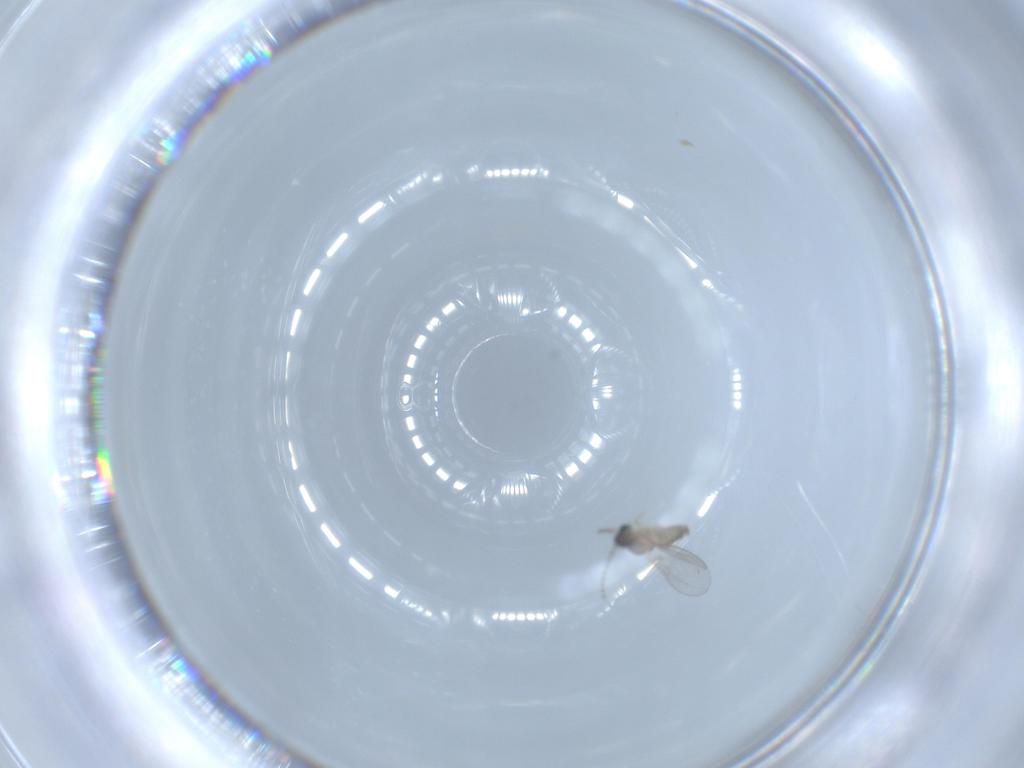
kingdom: Animalia
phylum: Arthropoda
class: Insecta
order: Diptera
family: Cecidomyiidae
